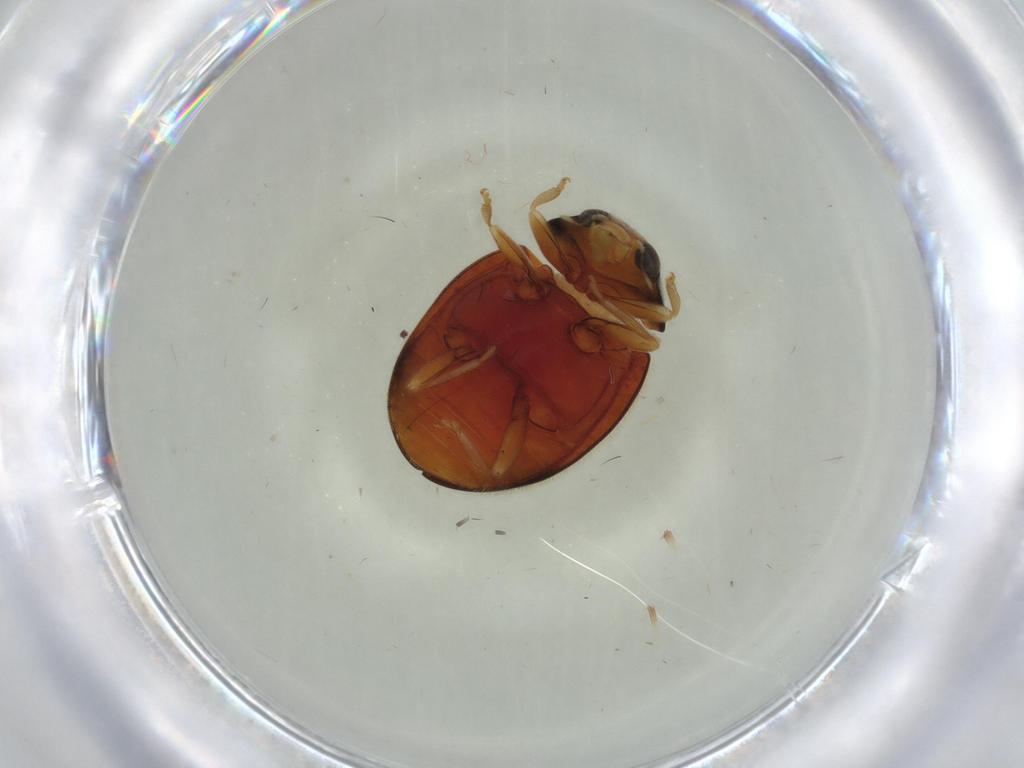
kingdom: Animalia
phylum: Arthropoda
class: Insecta
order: Coleoptera
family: Coccinellidae
